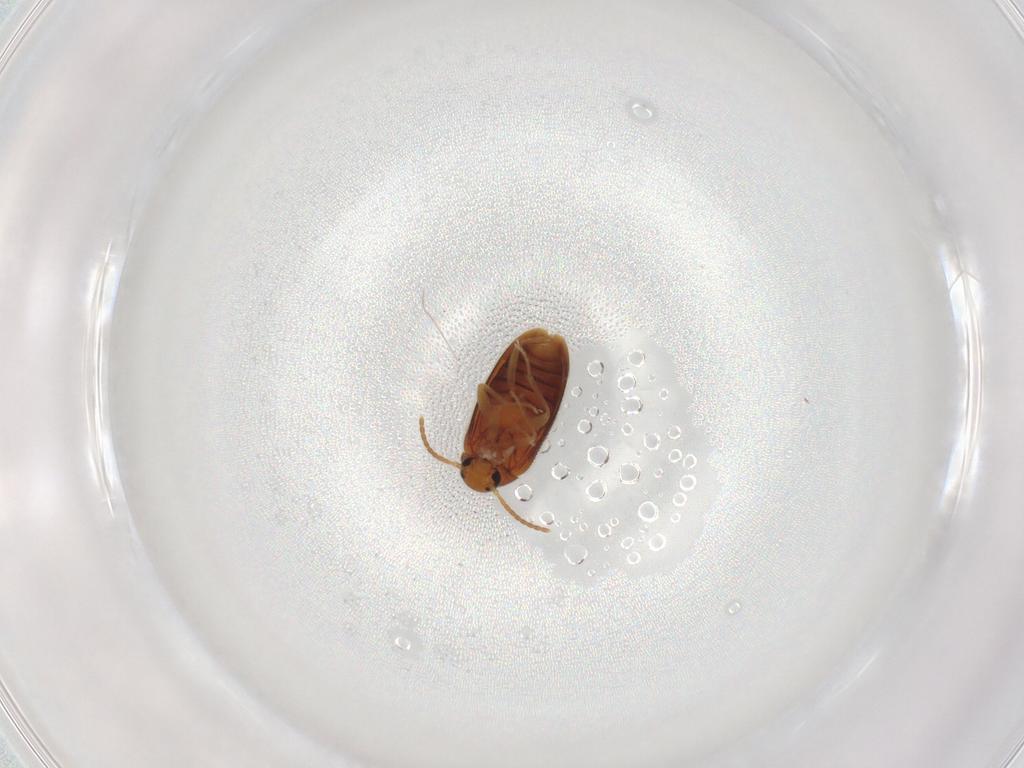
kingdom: Animalia
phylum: Arthropoda
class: Insecta
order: Coleoptera
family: Scraptiidae
